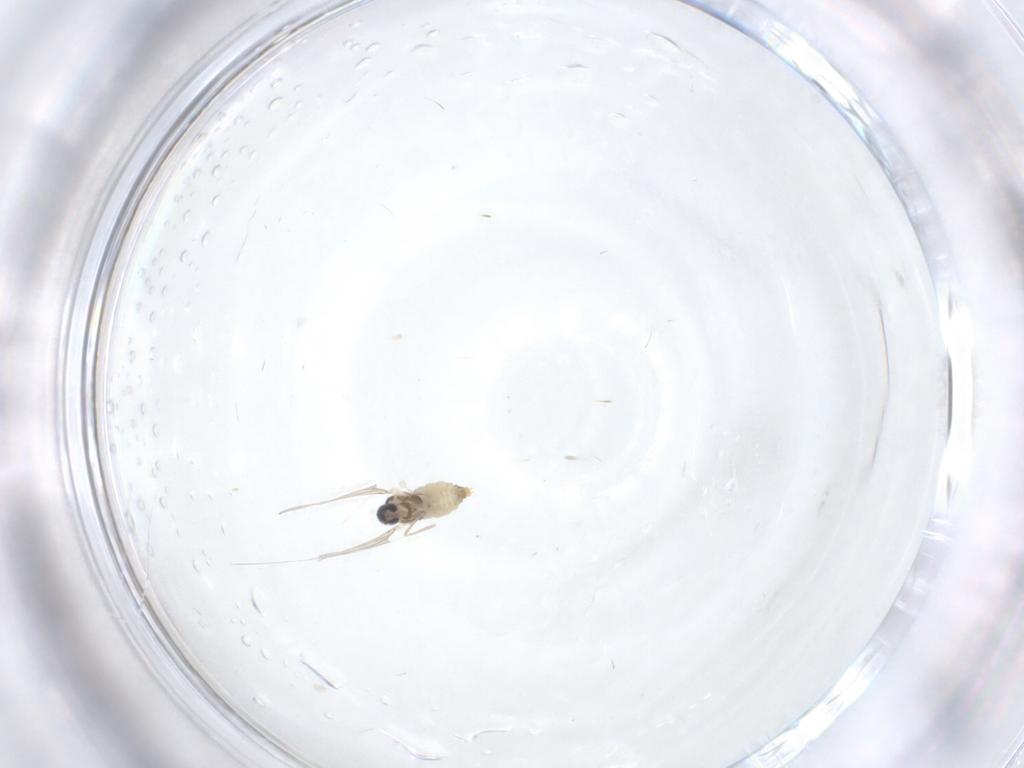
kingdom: Animalia
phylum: Arthropoda
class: Insecta
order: Diptera
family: Cecidomyiidae
